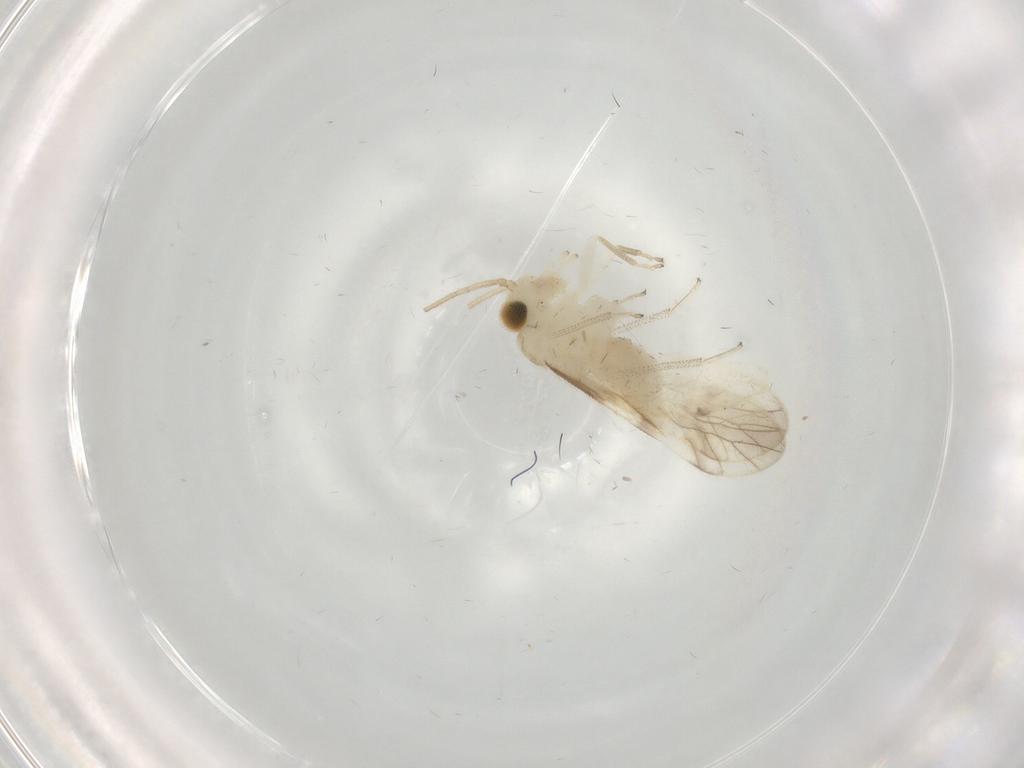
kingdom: Animalia
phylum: Arthropoda
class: Insecta
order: Psocodea
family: Caeciliusidae
